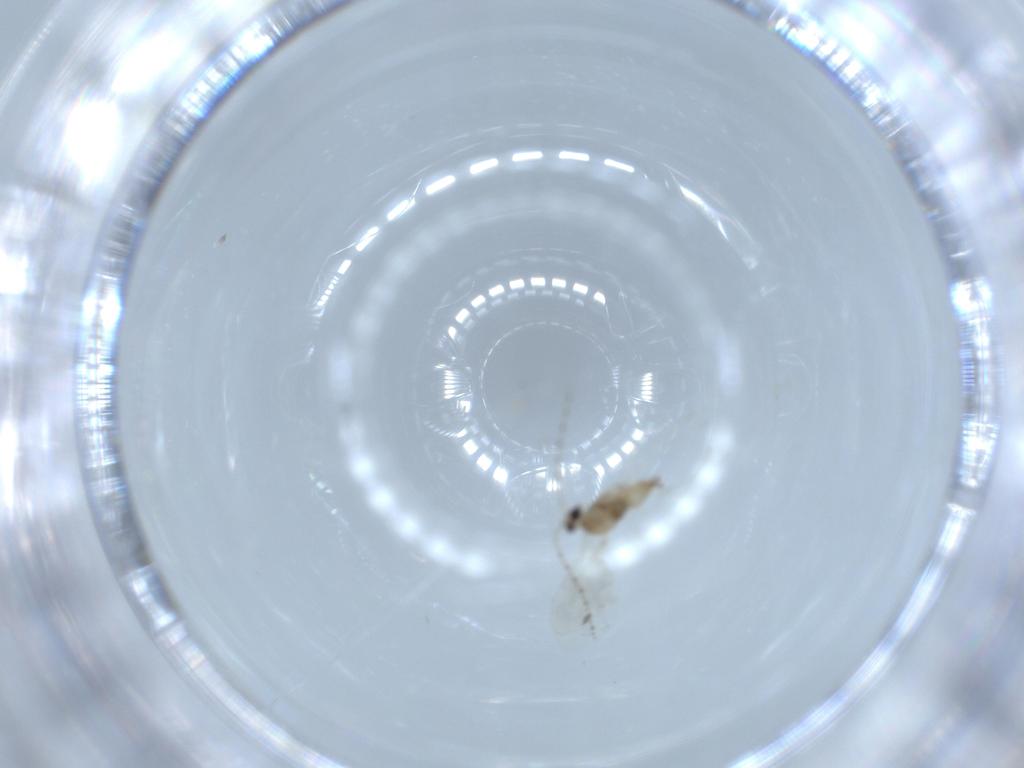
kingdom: Animalia
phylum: Arthropoda
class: Insecta
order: Diptera
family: Cecidomyiidae
